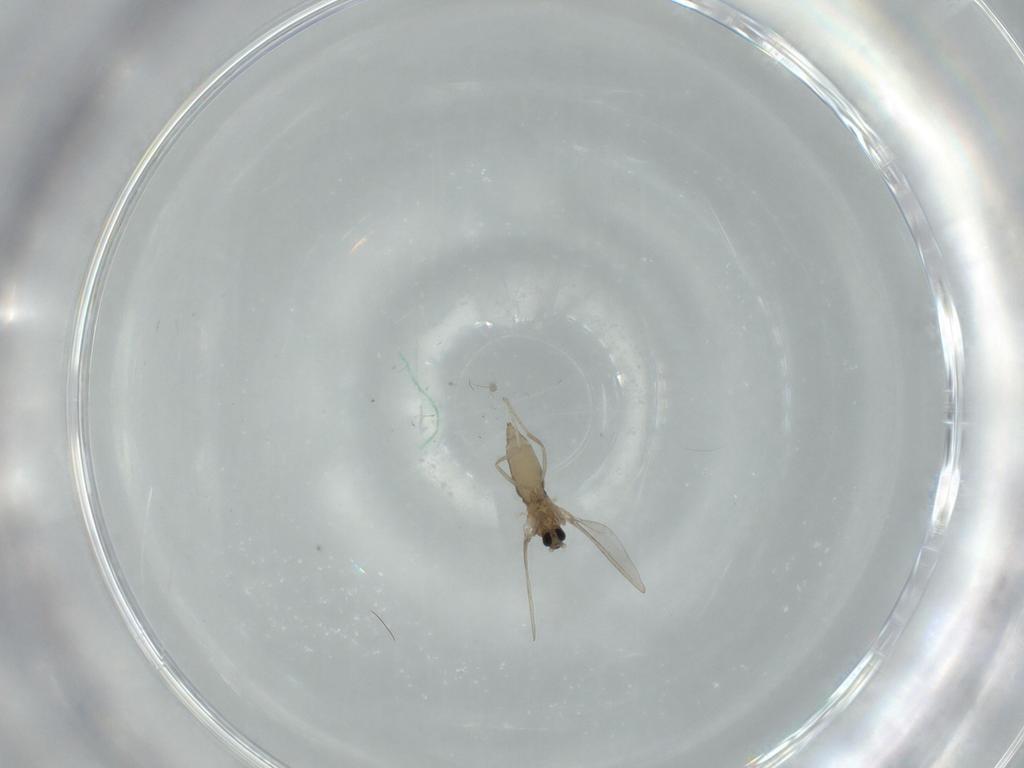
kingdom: Animalia
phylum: Arthropoda
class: Insecta
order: Diptera
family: Cecidomyiidae
